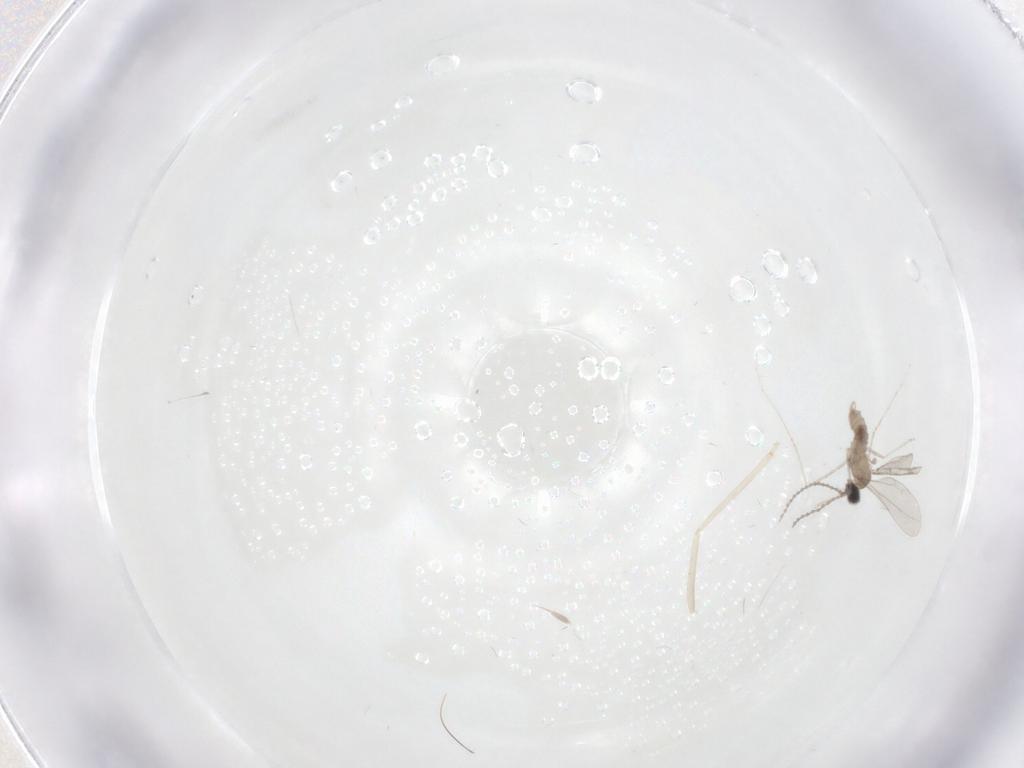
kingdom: Animalia
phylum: Arthropoda
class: Insecta
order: Diptera
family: Cecidomyiidae
